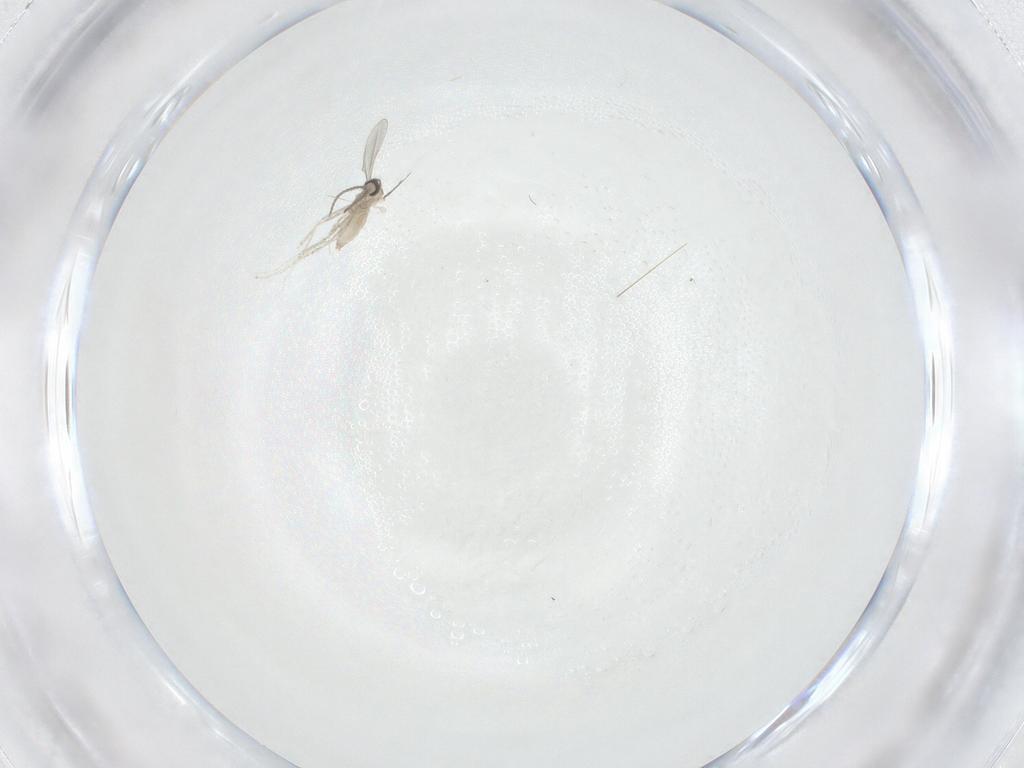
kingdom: Animalia
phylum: Arthropoda
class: Insecta
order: Diptera
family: Cecidomyiidae
